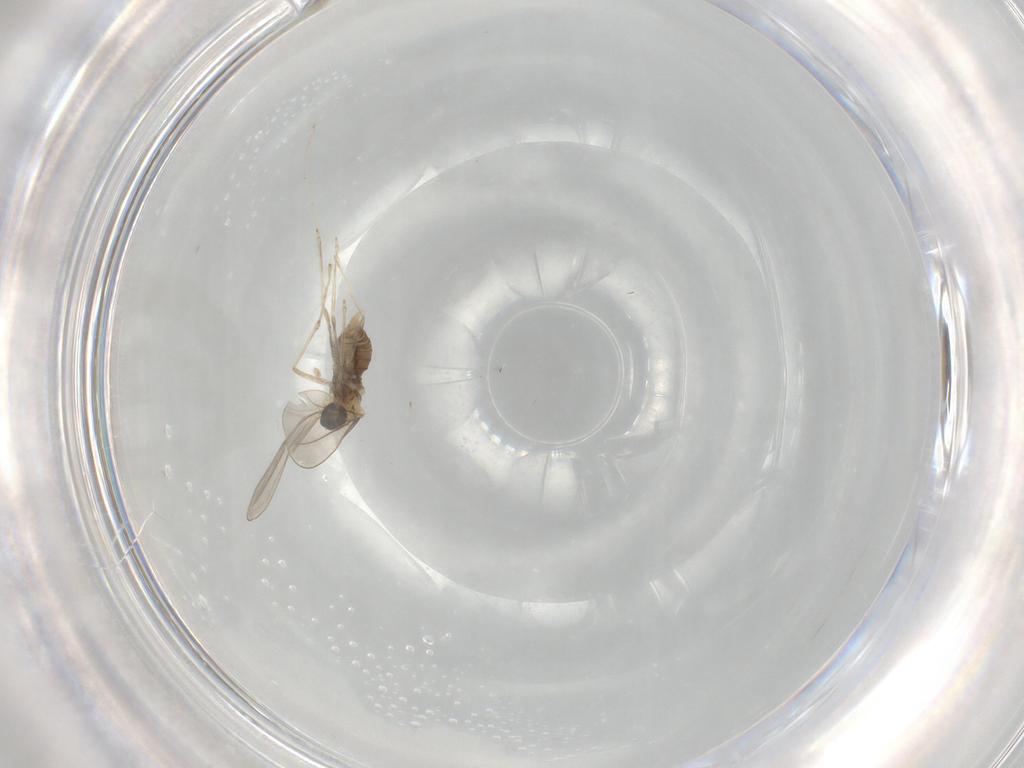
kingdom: Animalia
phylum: Arthropoda
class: Insecta
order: Diptera
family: Cecidomyiidae
